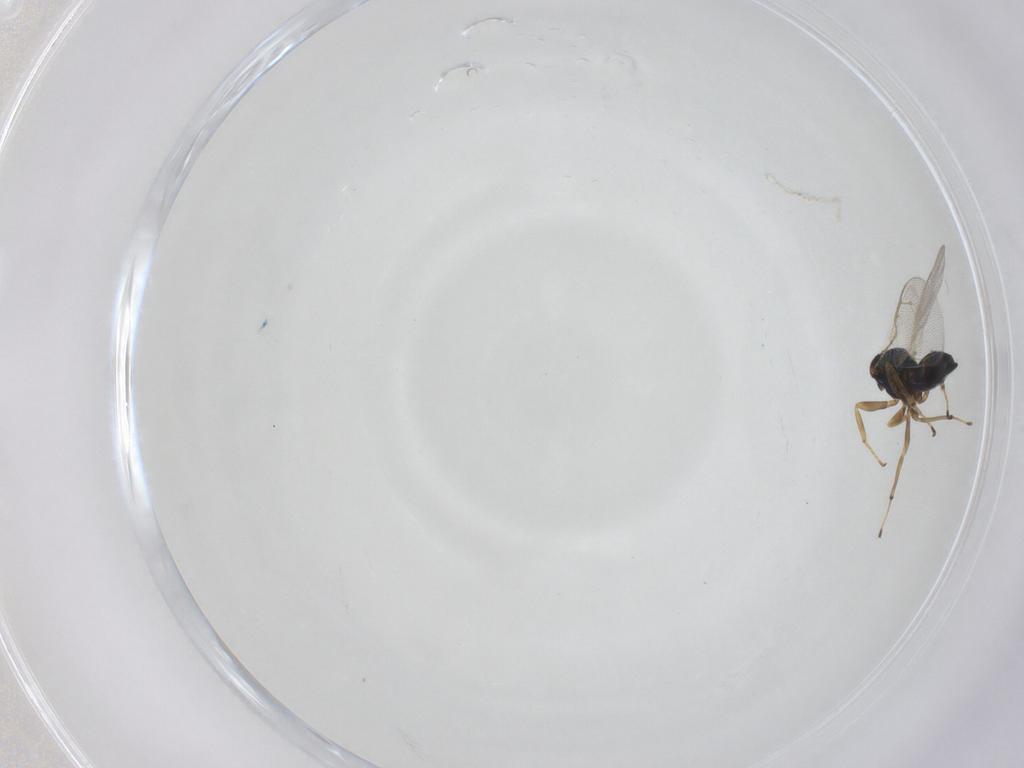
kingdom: Animalia
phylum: Arthropoda
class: Insecta
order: Hymenoptera
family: Pteromalidae
